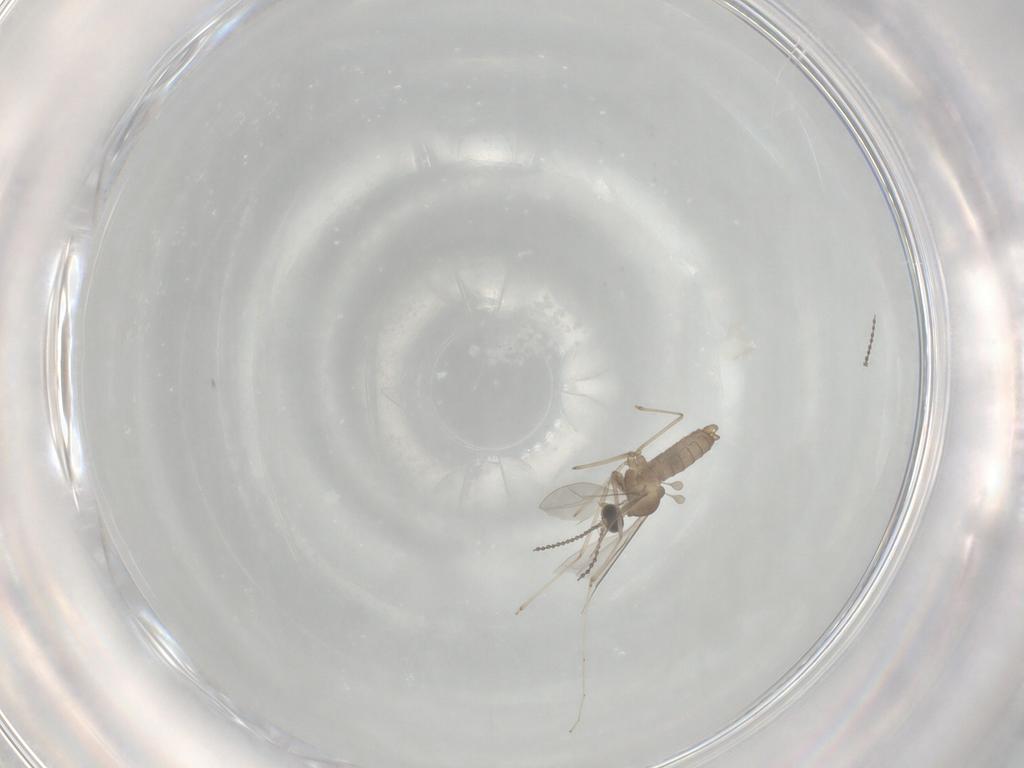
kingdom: Animalia
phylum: Arthropoda
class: Insecta
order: Diptera
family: Cecidomyiidae
